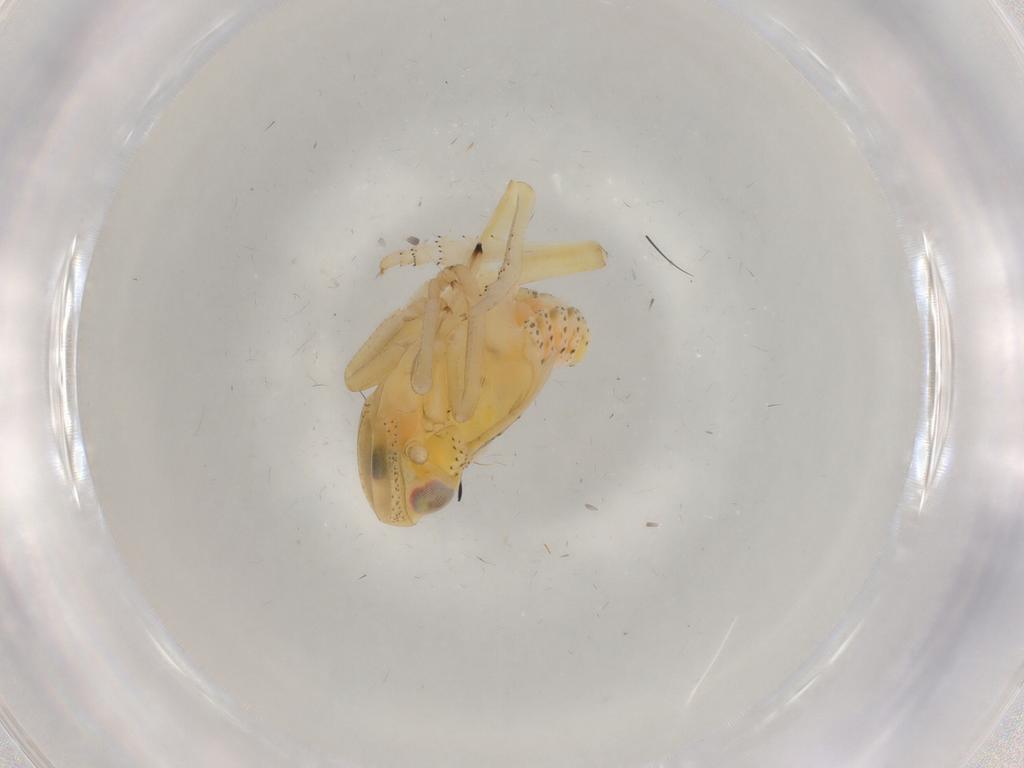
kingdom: Animalia
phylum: Arthropoda
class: Insecta
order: Hemiptera
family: Tropiduchidae
